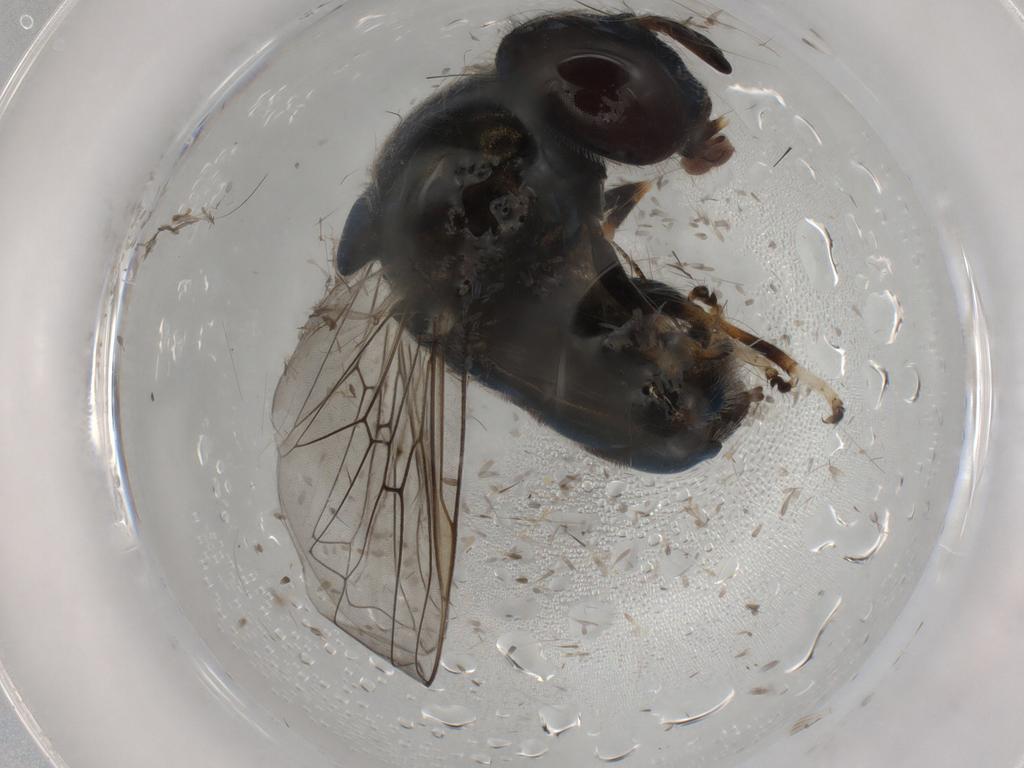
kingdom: Animalia
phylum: Arthropoda
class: Insecta
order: Diptera
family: Syrphidae
